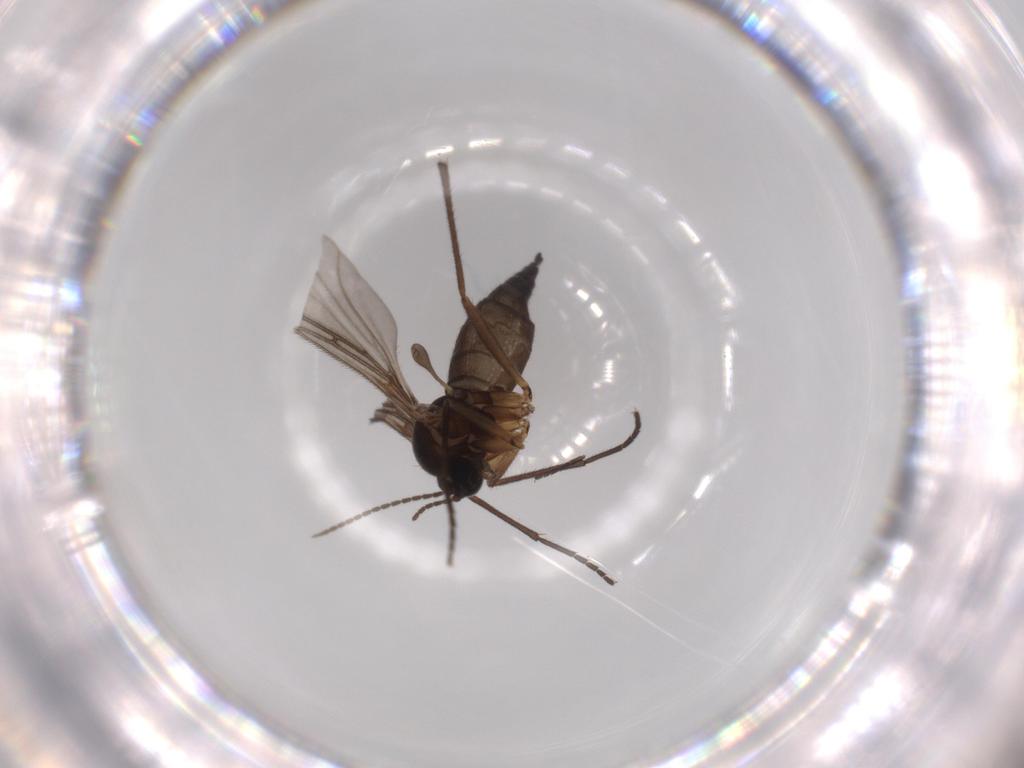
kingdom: Animalia
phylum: Arthropoda
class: Insecta
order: Diptera
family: Sciaridae
